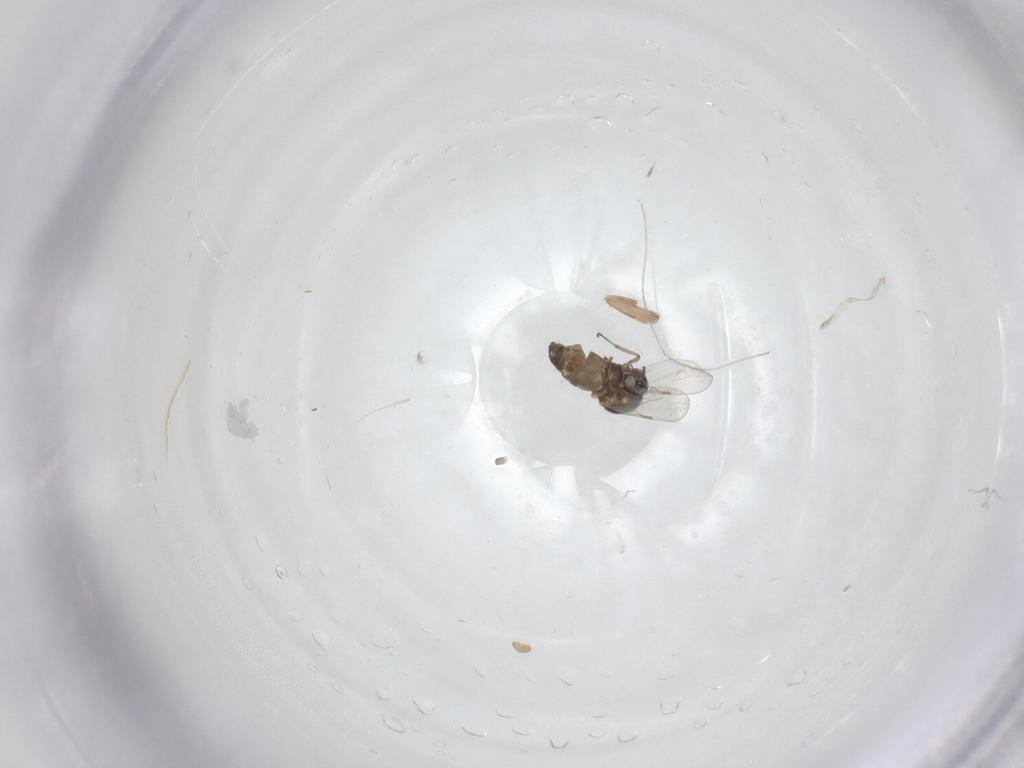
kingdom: Animalia
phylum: Arthropoda
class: Insecta
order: Diptera
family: Ceratopogonidae
